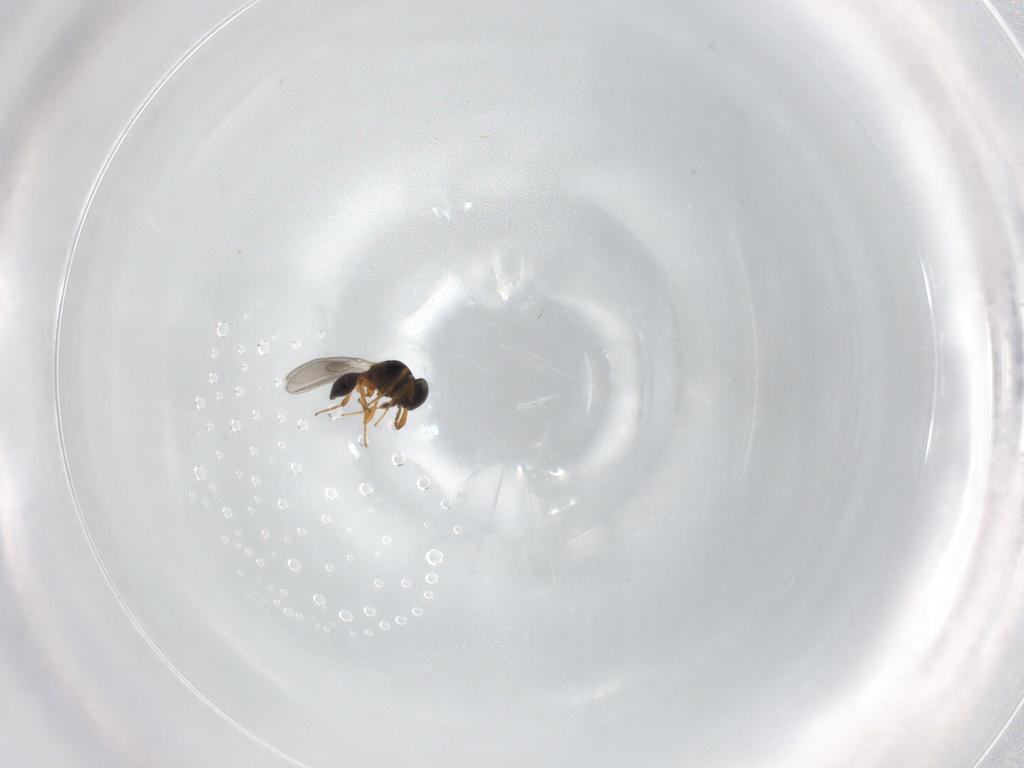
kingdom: Animalia
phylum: Arthropoda
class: Insecta
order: Hymenoptera
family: Platygastridae
